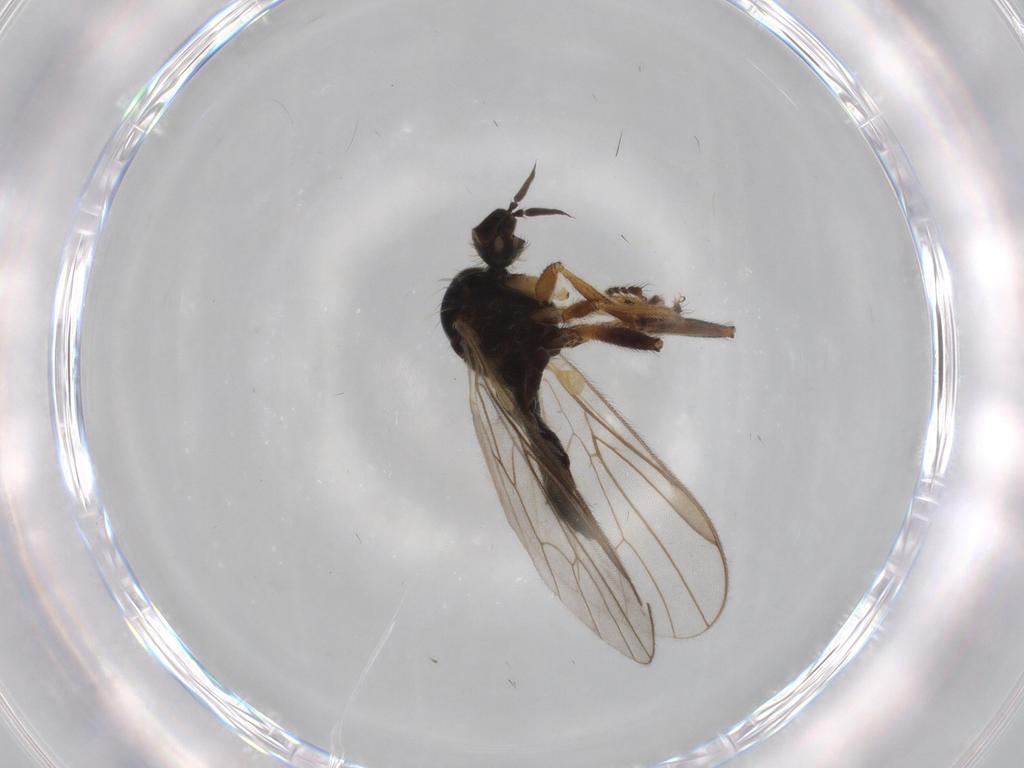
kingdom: Animalia
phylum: Arthropoda
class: Insecta
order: Diptera
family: Hybotidae
